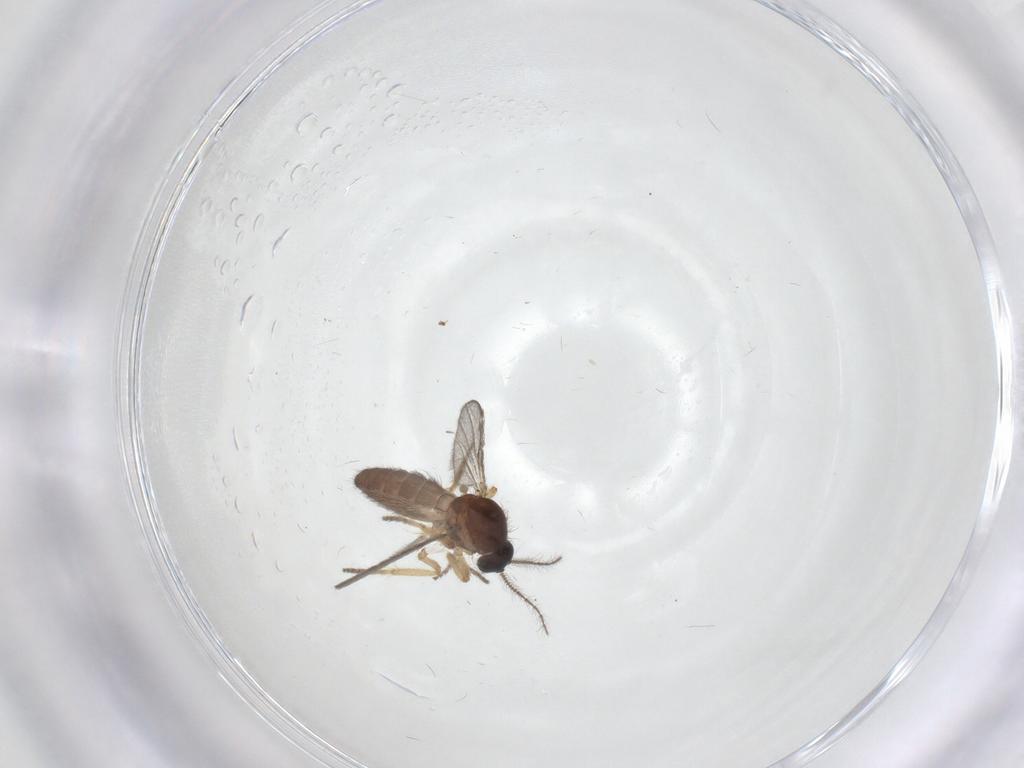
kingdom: Animalia
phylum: Arthropoda
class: Insecta
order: Diptera
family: Ceratopogonidae
